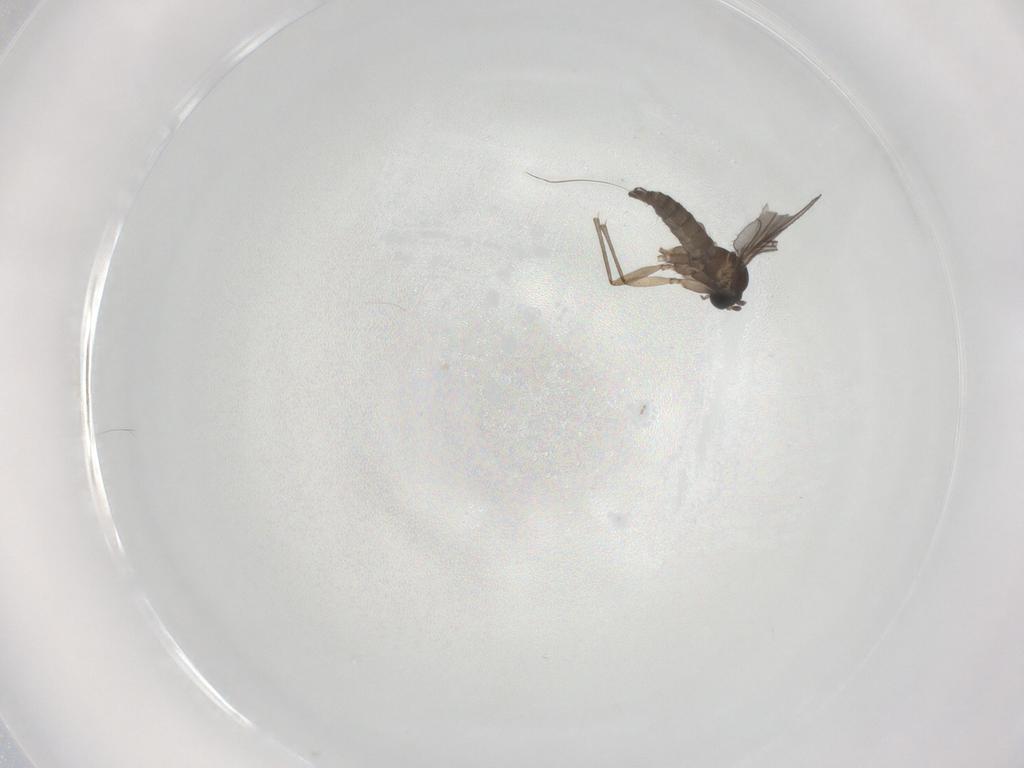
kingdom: Animalia
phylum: Arthropoda
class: Insecta
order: Diptera
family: Sciaridae
